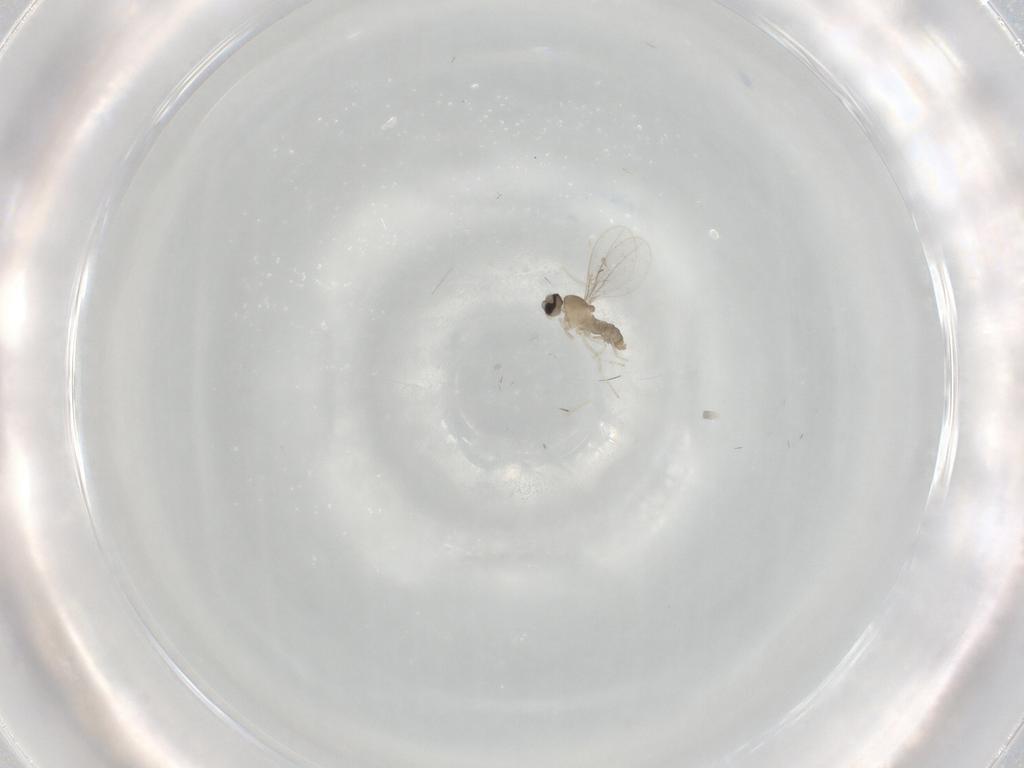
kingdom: Animalia
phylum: Arthropoda
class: Insecta
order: Diptera
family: Cecidomyiidae
